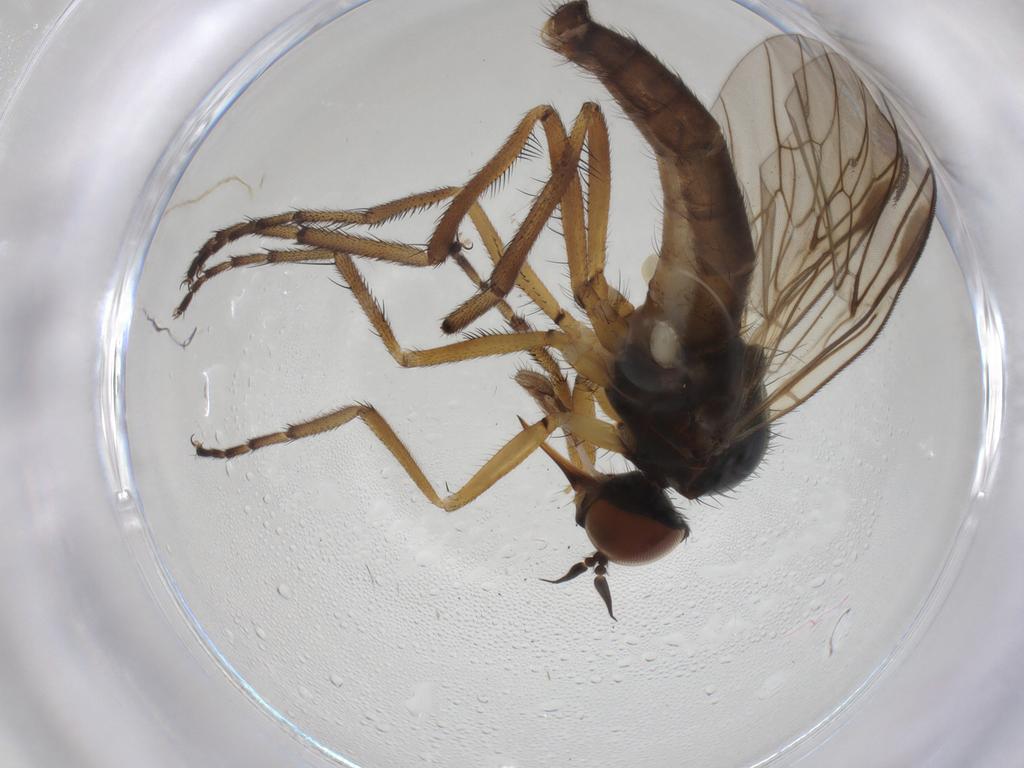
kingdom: Animalia
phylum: Arthropoda
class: Insecta
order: Diptera
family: Empididae
